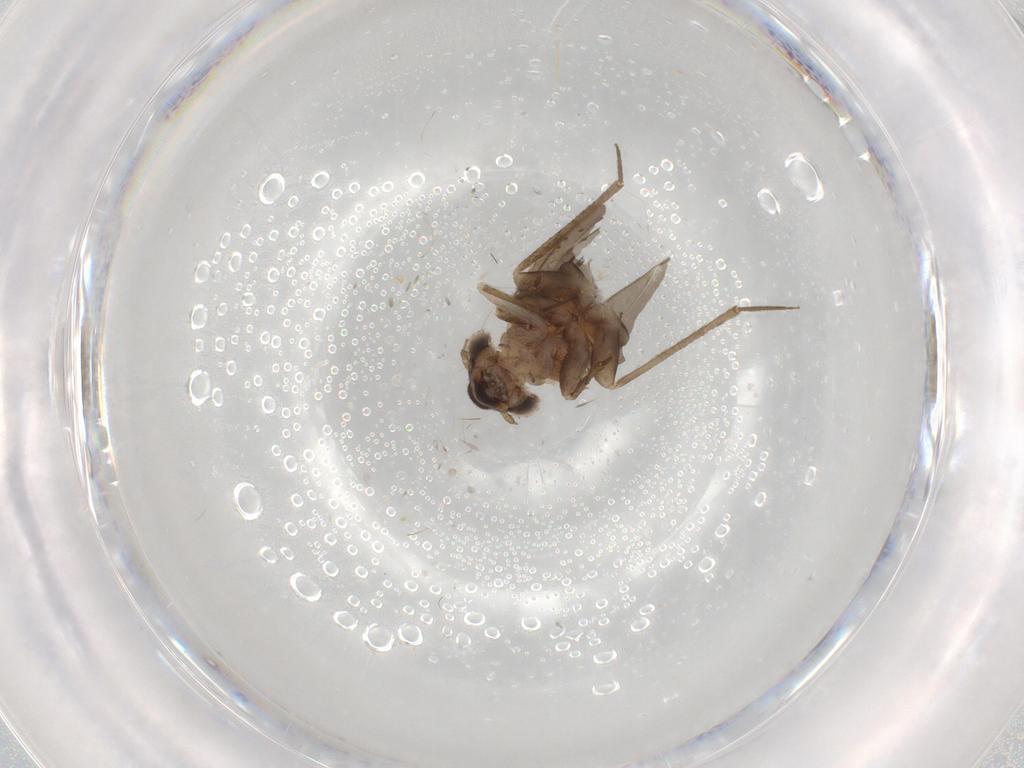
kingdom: Animalia
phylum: Arthropoda
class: Insecta
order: Psocodea
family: Lepidopsocidae
